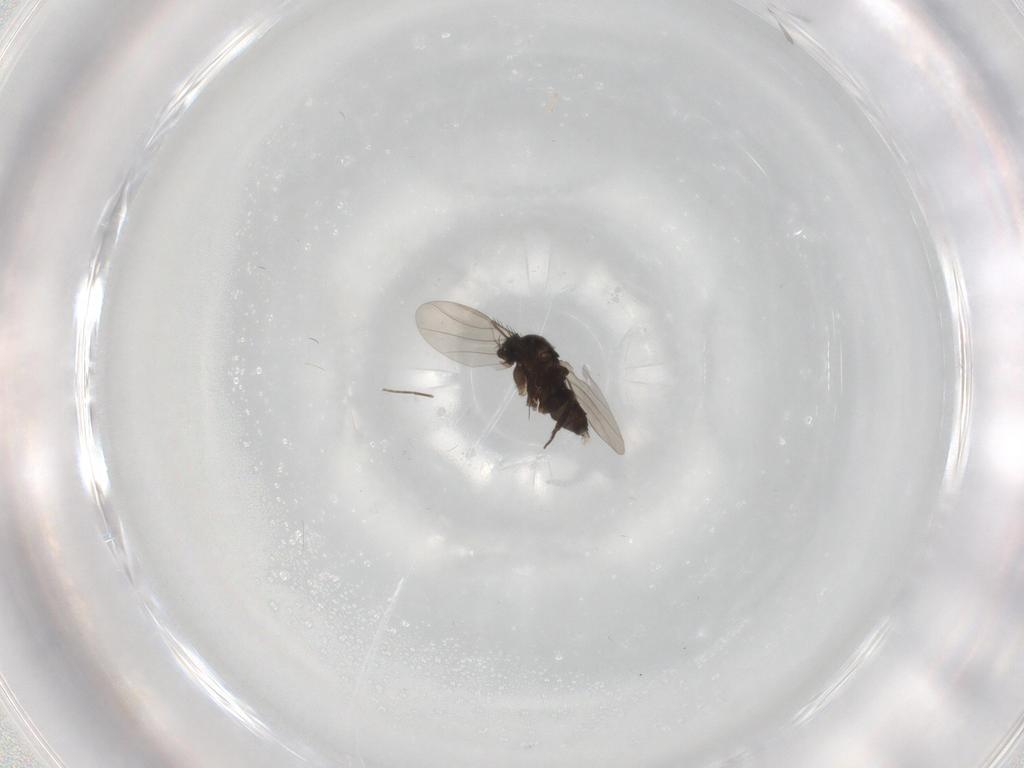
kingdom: Animalia
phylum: Arthropoda
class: Insecta
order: Diptera
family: Phoridae
